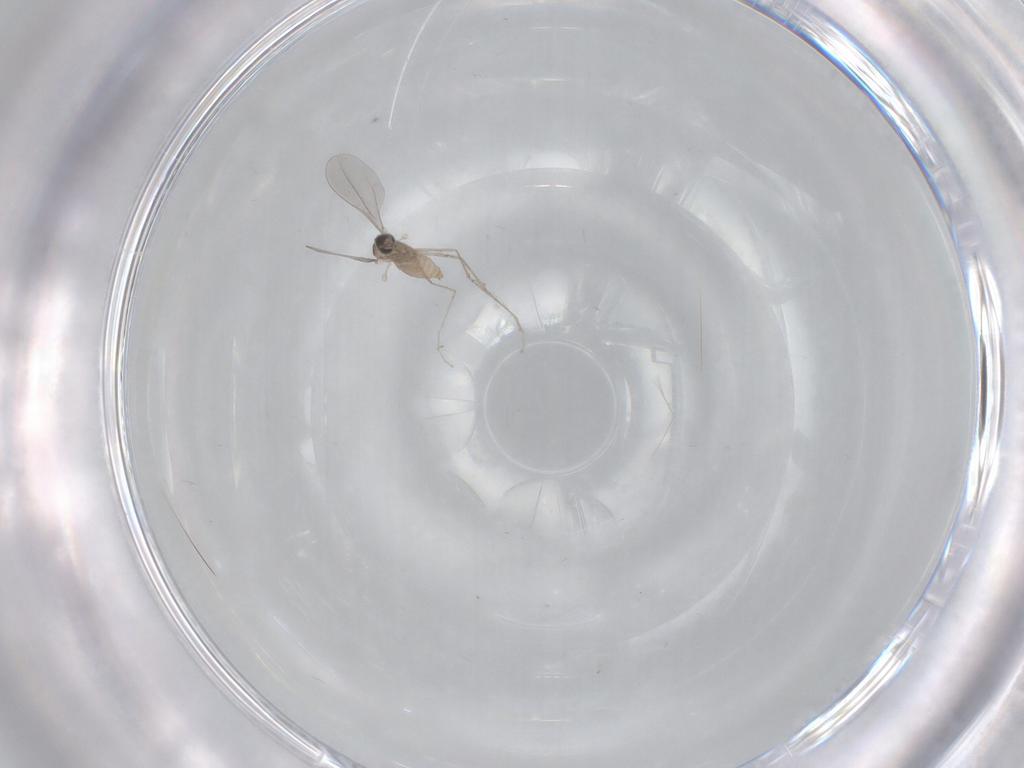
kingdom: Animalia
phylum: Arthropoda
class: Insecta
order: Diptera
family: Cecidomyiidae
